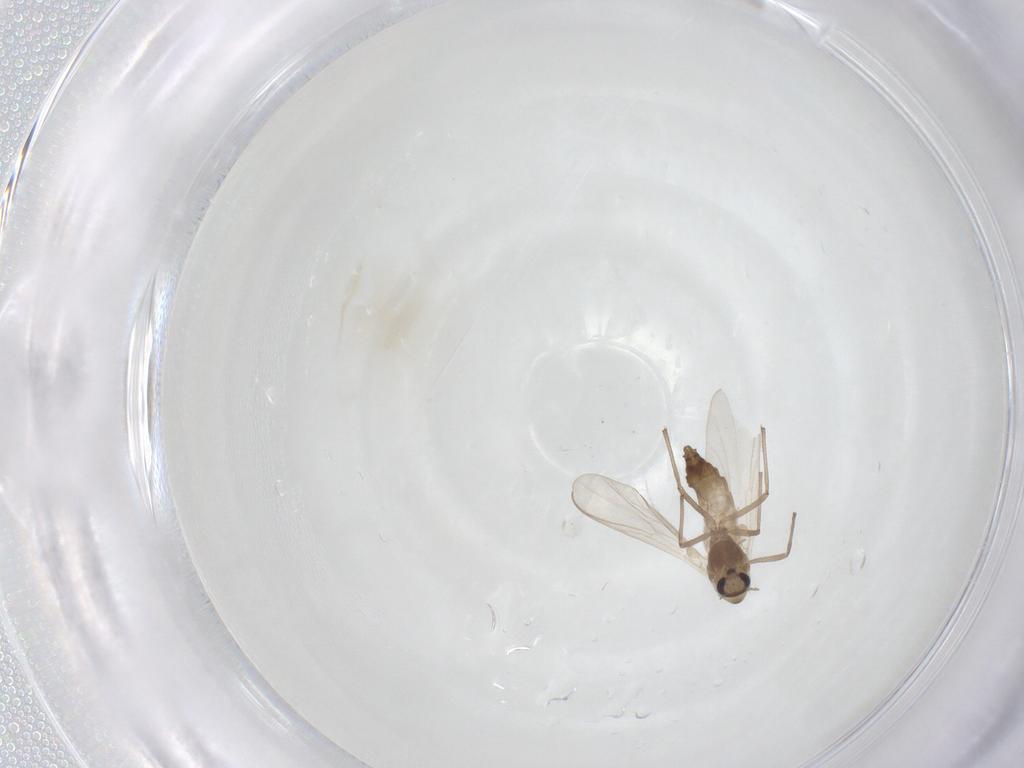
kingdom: Animalia
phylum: Arthropoda
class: Insecta
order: Diptera
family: Chironomidae
